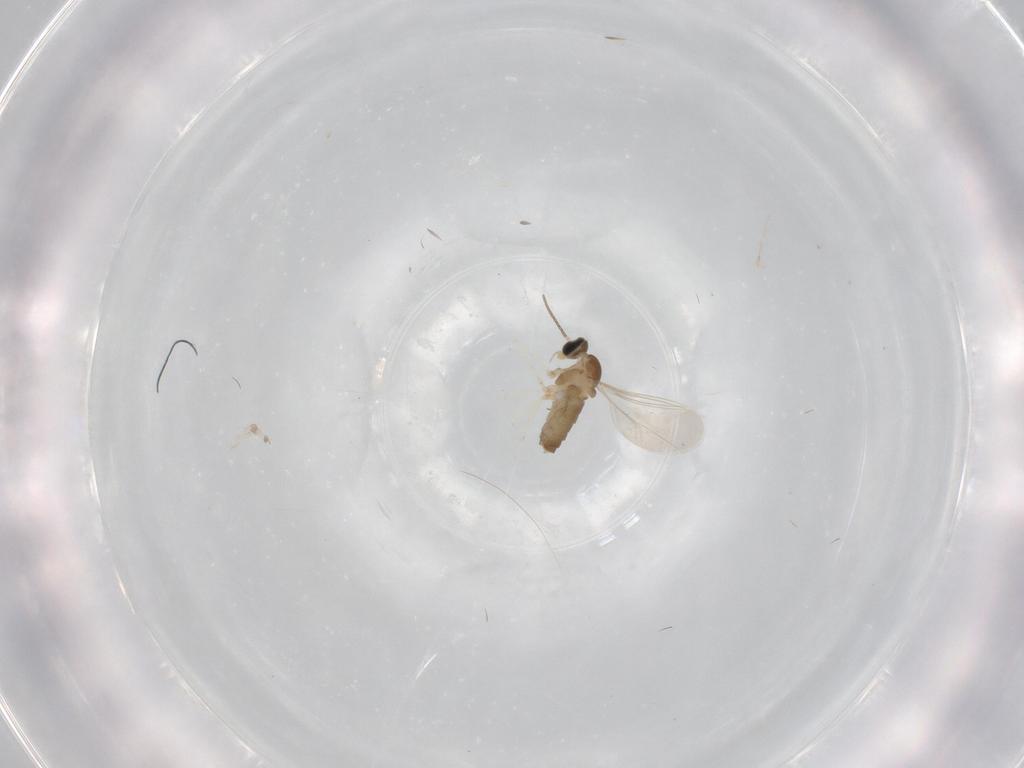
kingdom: Animalia
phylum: Arthropoda
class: Insecta
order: Diptera
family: Cecidomyiidae
